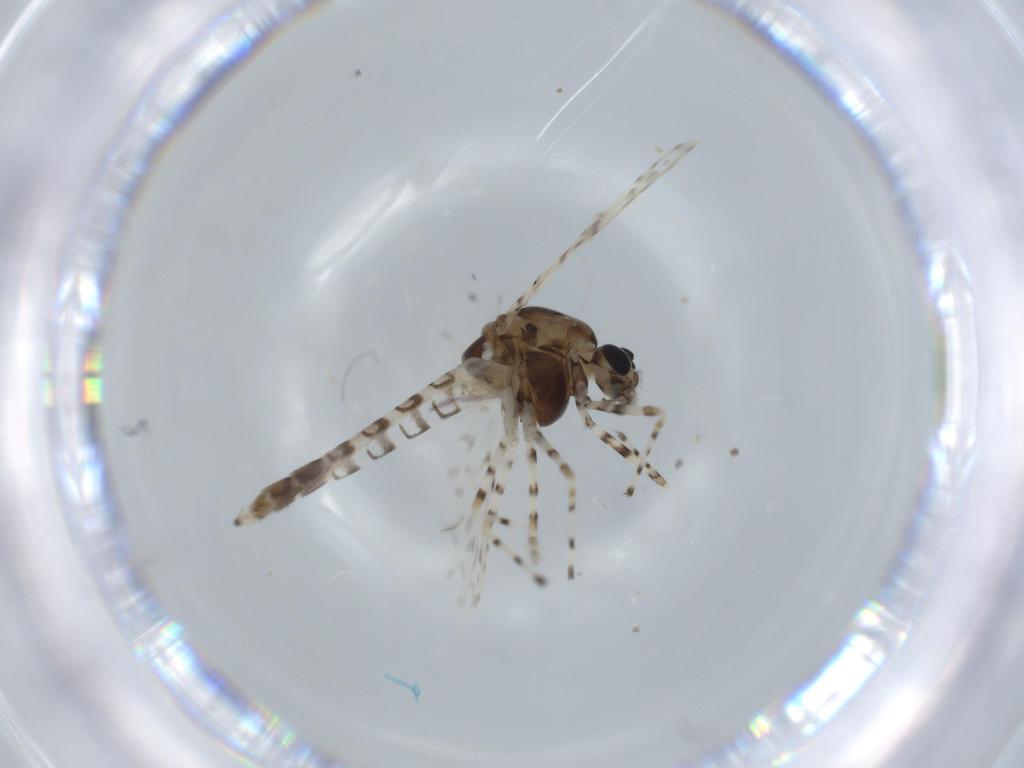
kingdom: Animalia
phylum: Arthropoda
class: Insecta
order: Diptera
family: Chironomidae
